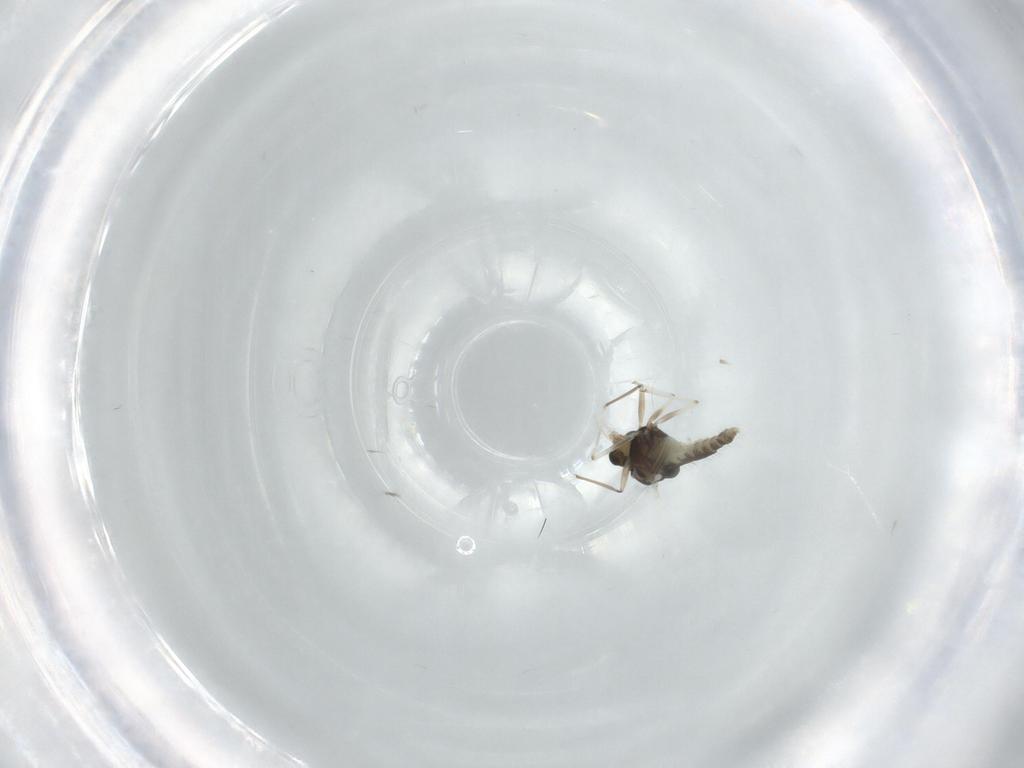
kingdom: Animalia
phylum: Arthropoda
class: Insecta
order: Diptera
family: Chironomidae
